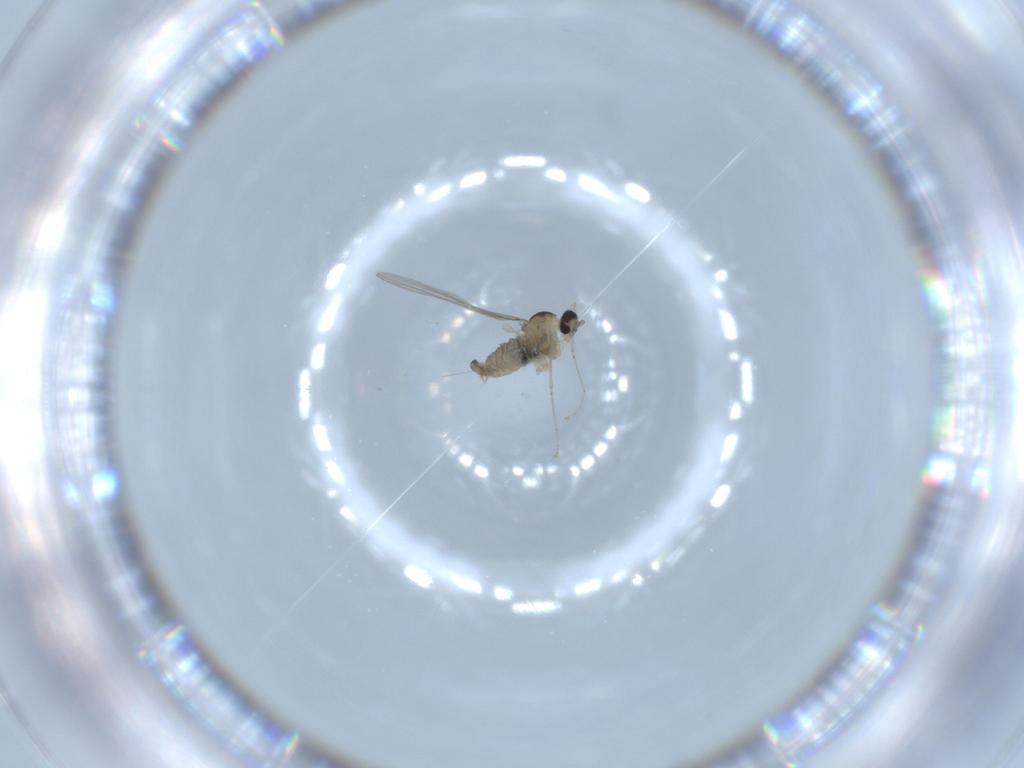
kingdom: Animalia
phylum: Arthropoda
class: Insecta
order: Diptera
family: Cecidomyiidae
